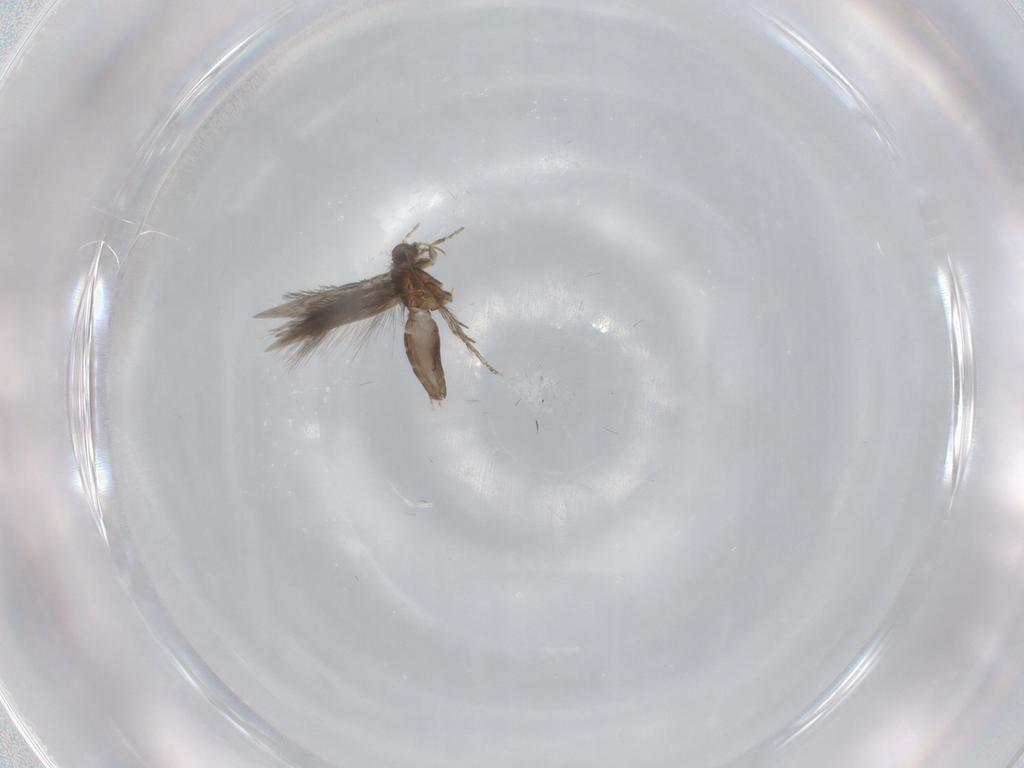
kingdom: Animalia
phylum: Arthropoda
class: Insecta
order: Trichoptera
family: Hydroptilidae
